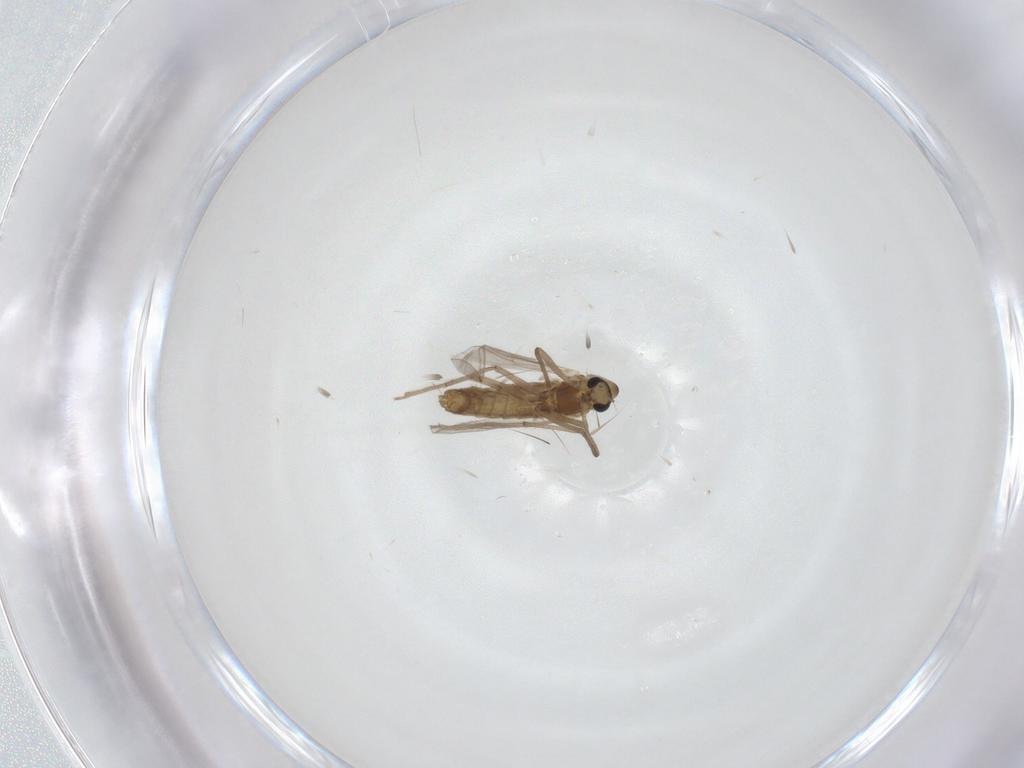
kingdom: Animalia
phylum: Arthropoda
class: Insecta
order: Diptera
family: Chironomidae
